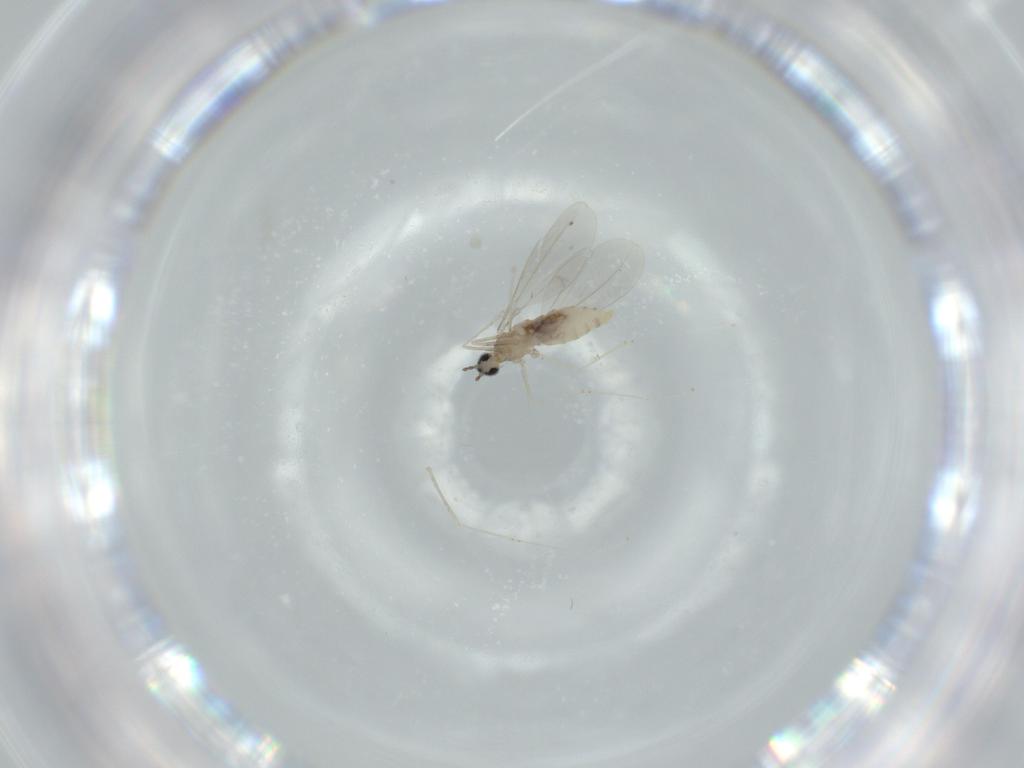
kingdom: Animalia
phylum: Arthropoda
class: Insecta
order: Diptera
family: Cecidomyiidae
